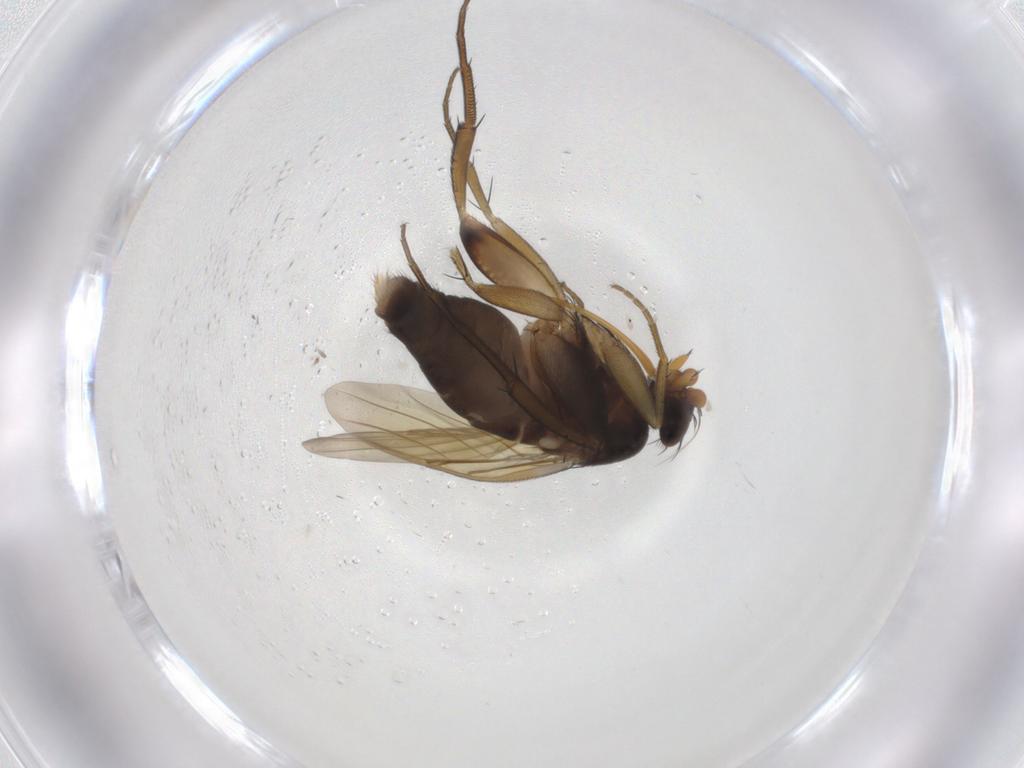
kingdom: Animalia
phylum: Arthropoda
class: Insecta
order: Diptera
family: Phoridae
